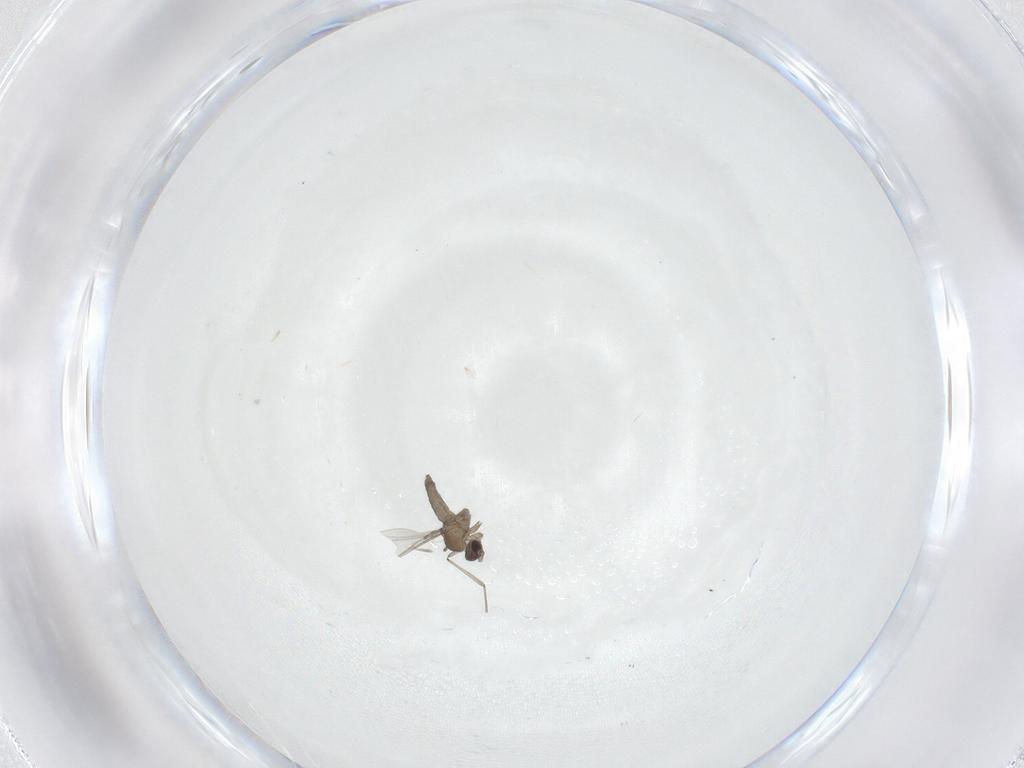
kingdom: Animalia
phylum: Arthropoda
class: Insecta
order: Diptera
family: Cecidomyiidae
